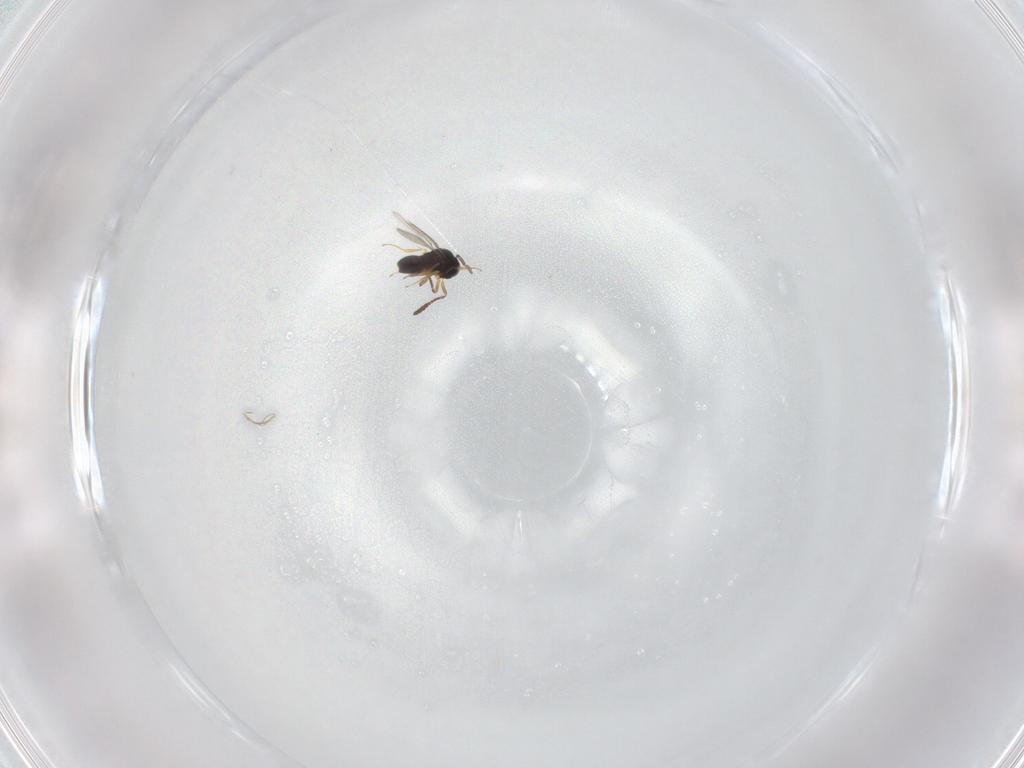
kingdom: Animalia
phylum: Arthropoda
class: Insecta
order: Hymenoptera
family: Scelionidae
